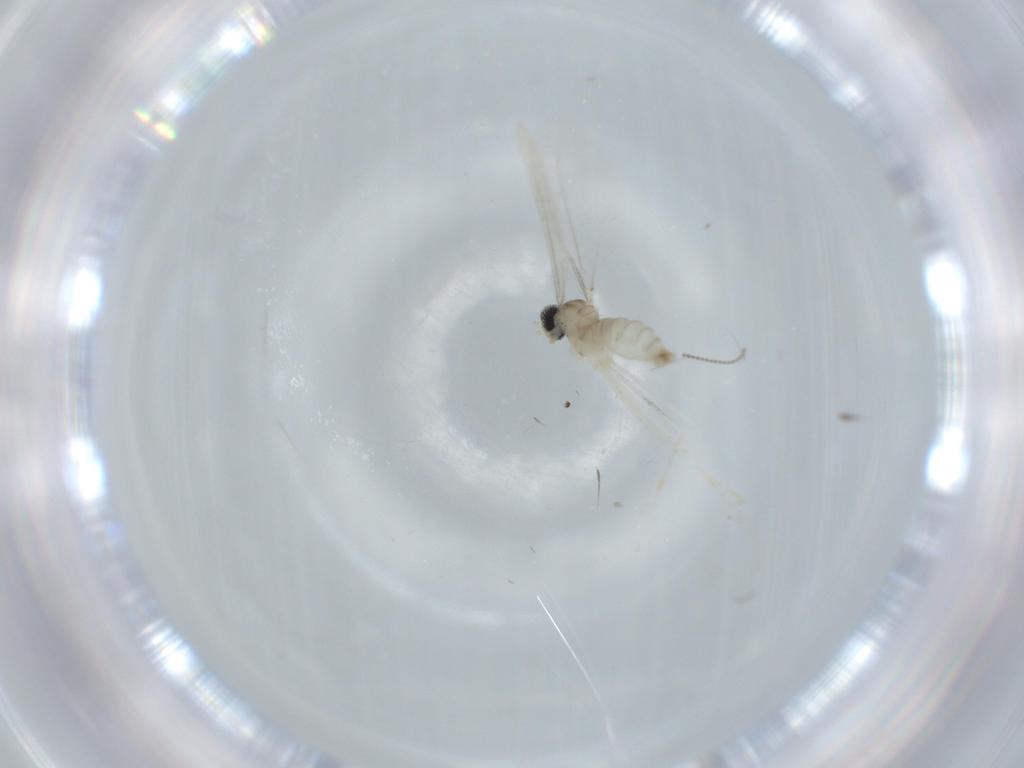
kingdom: Animalia
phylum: Arthropoda
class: Insecta
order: Diptera
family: Cecidomyiidae
